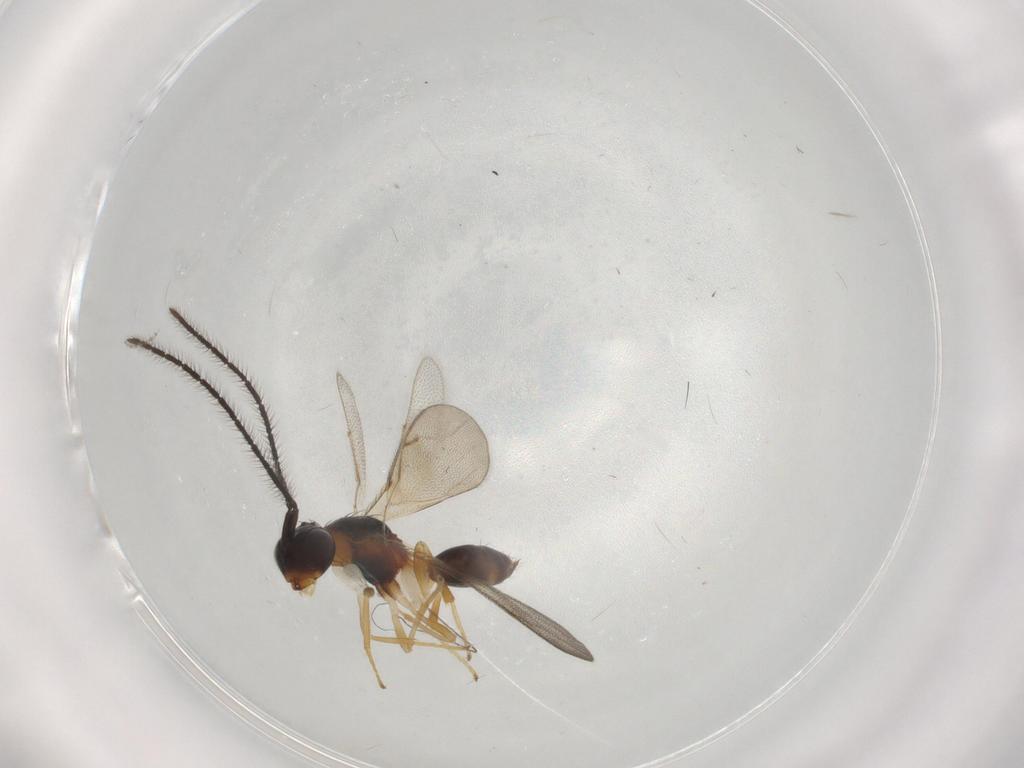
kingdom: Animalia
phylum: Arthropoda
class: Insecta
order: Hymenoptera
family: Diparidae
